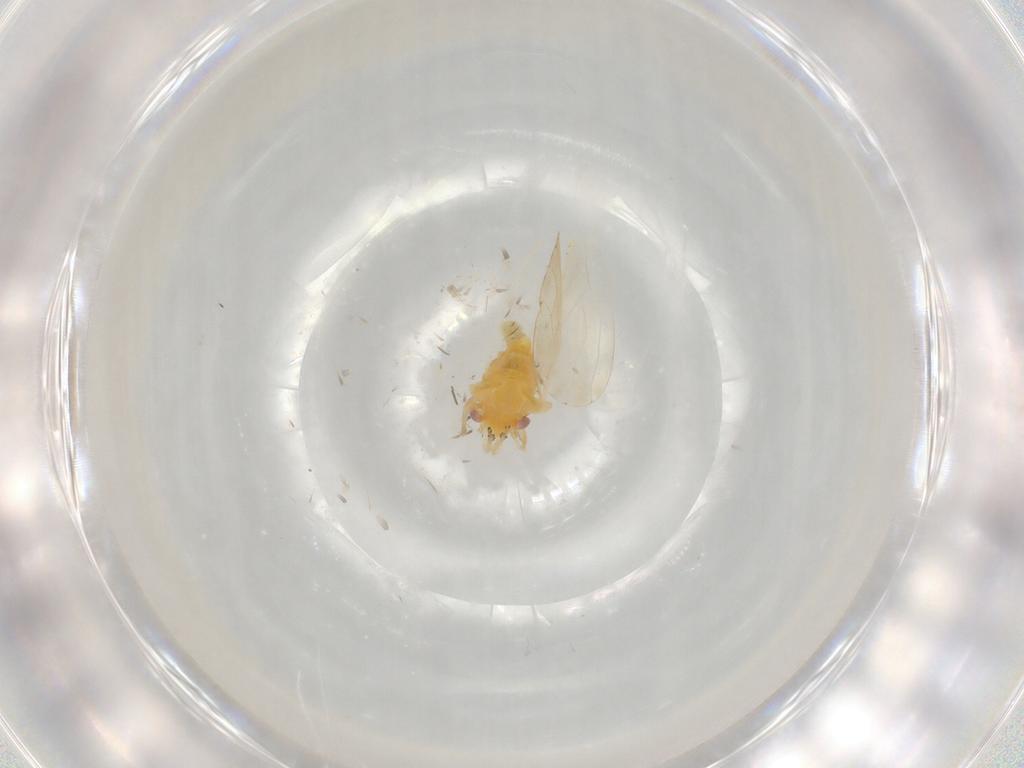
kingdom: Animalia
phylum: Arthropoda
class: Insecta
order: Hemiptera
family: Psyllidae
